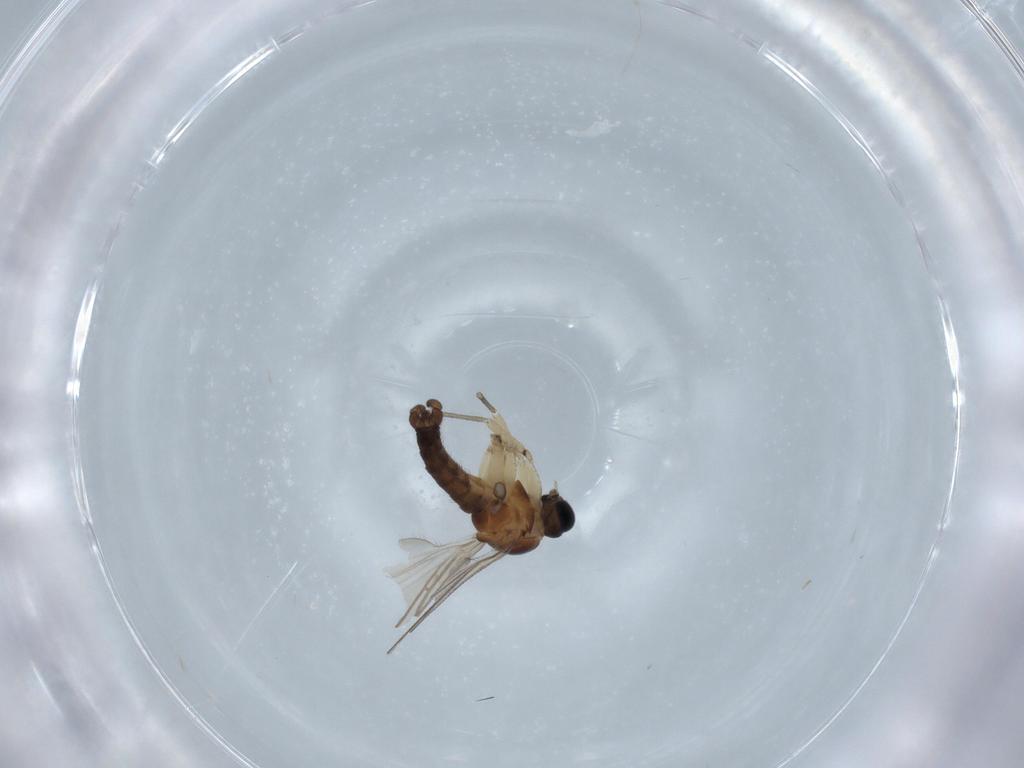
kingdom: Animalia
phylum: Arthropoda
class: Insecta
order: Diptera
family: Sciaridae
